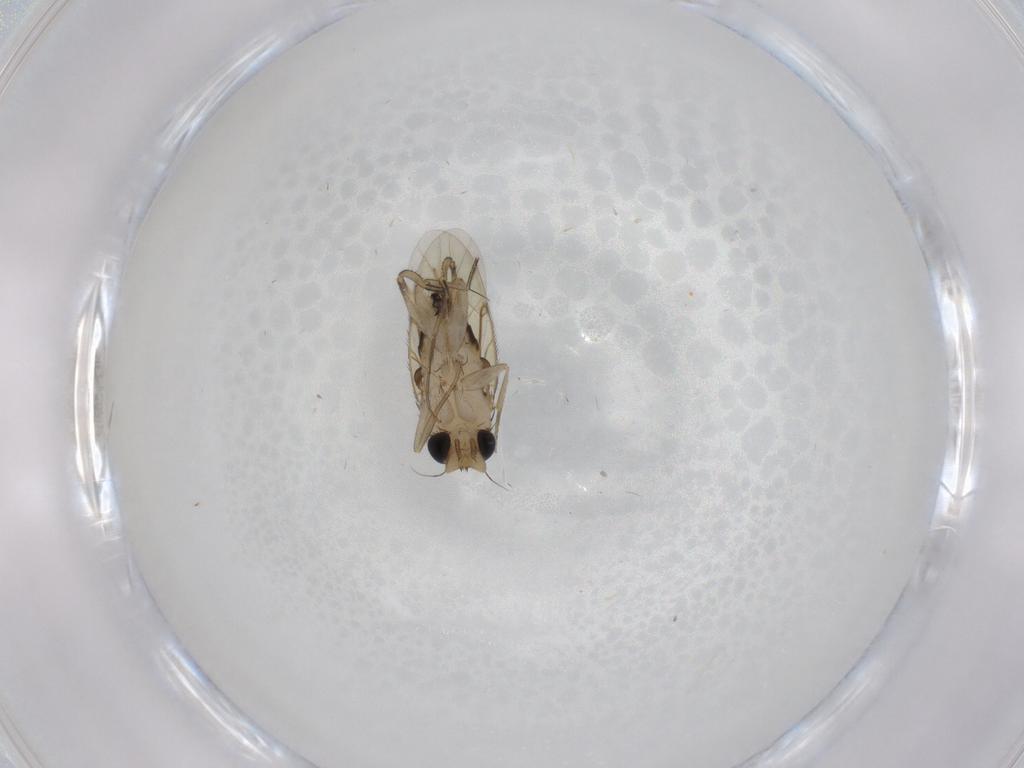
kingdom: Animalia
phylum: Arthropoda
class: Insecta
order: Diptera
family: Phoridae
